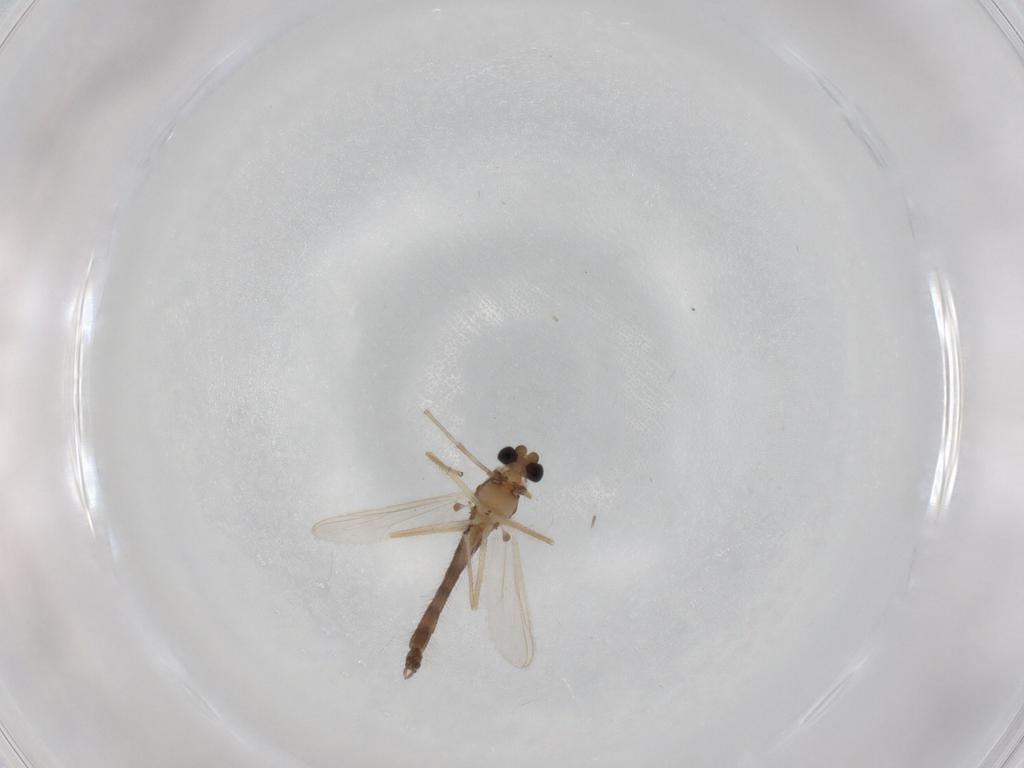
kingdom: Animalia
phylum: Arthropoda
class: Insecta
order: Diptera
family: Chironomidae
